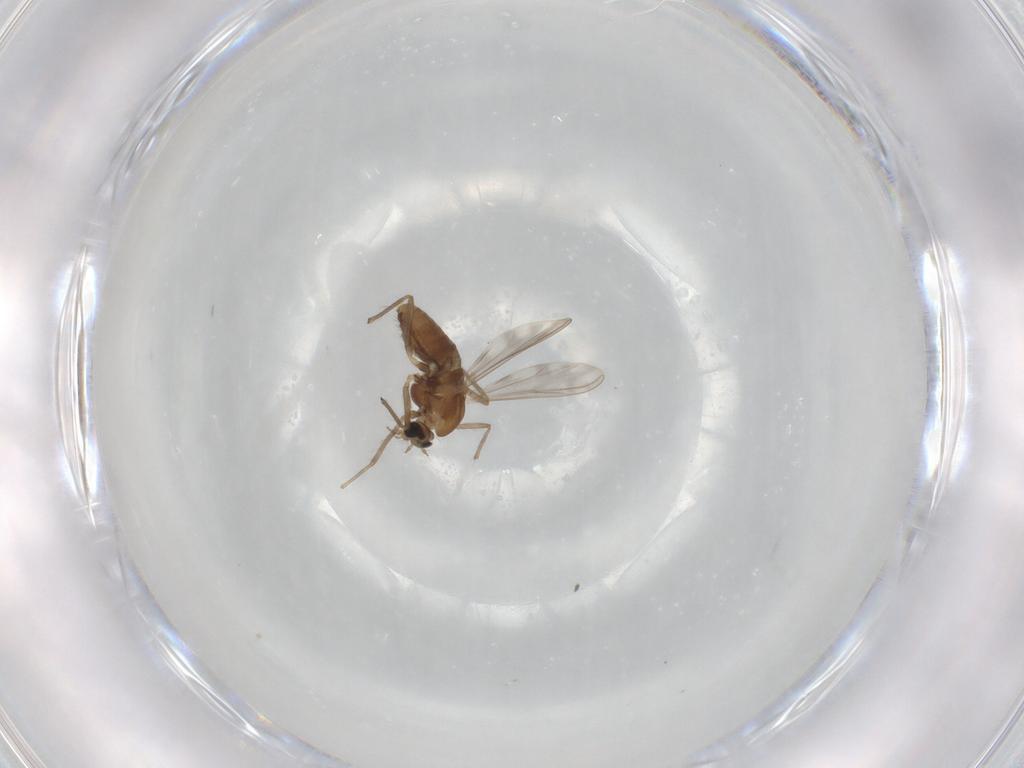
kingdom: Animalia
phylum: Arthropoda
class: Insecta
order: Diptera
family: Chironomidae
